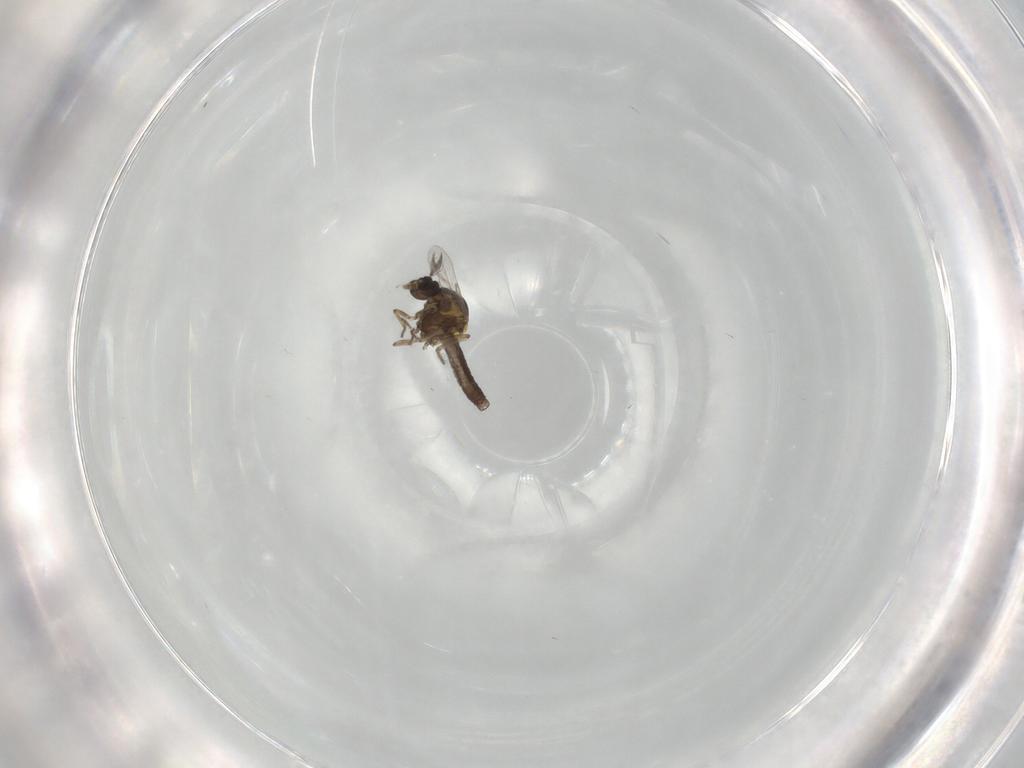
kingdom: Animalia
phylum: Arthropoda
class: Insecta
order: Diptera
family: Ceratopogonidae
